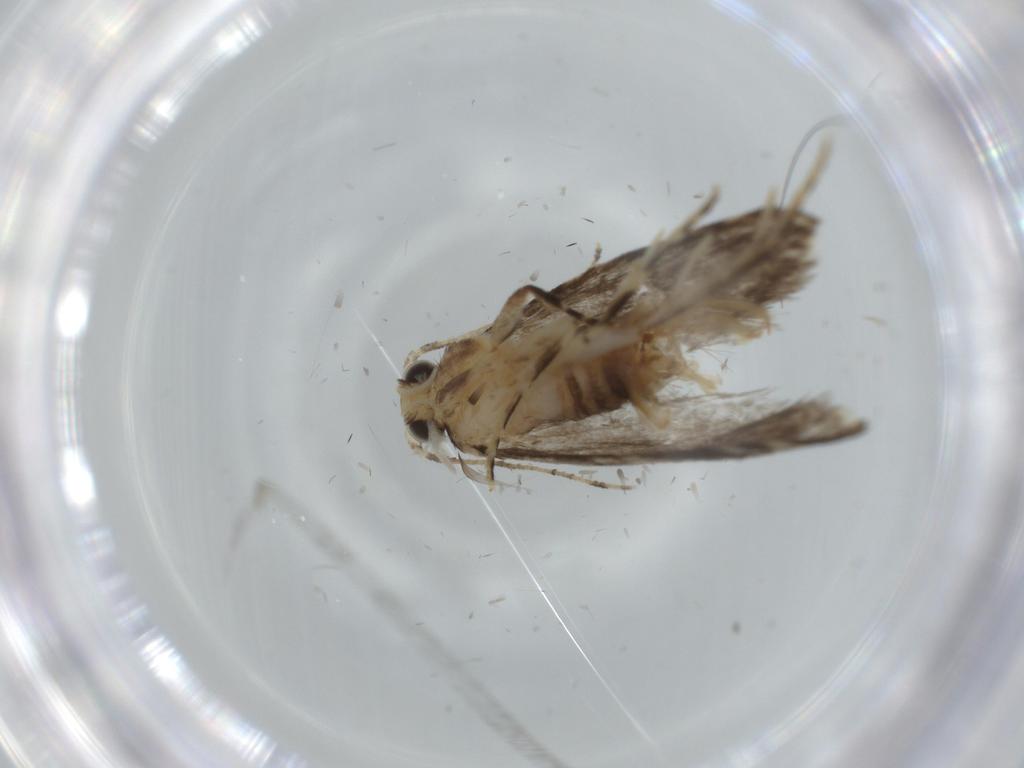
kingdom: Animalia
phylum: Arthropoda
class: Insecta
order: Lepidoptera
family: Tineidae
